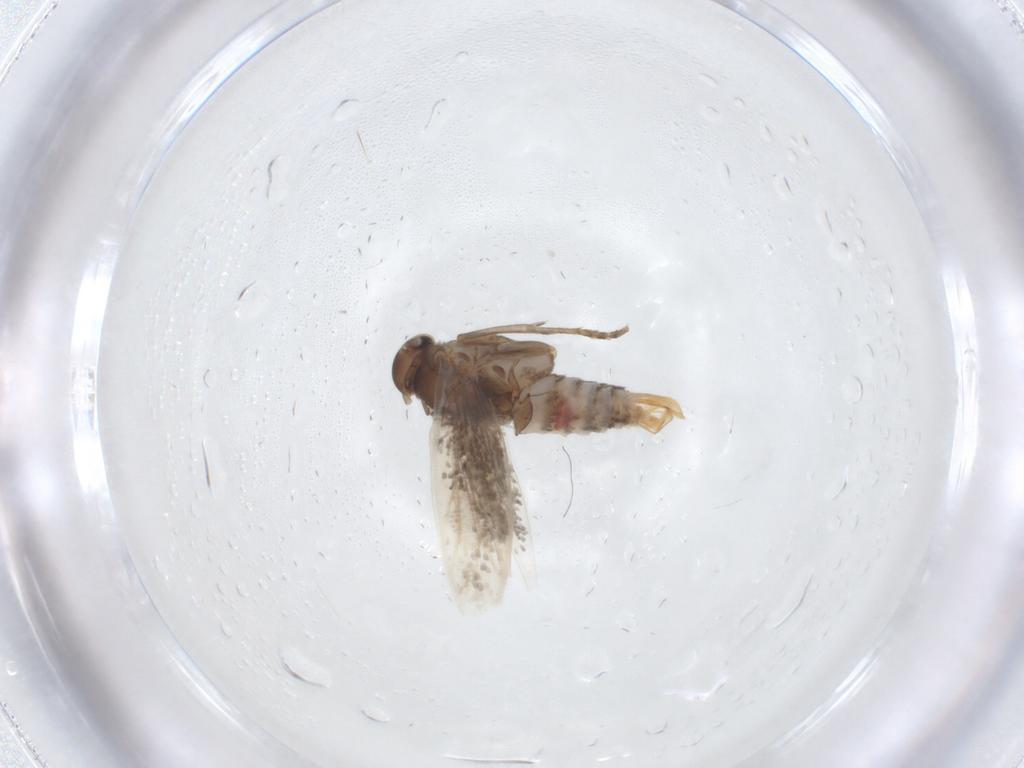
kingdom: Animalia
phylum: Arthropoda
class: Insecta
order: Lepidoptera
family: Elachistidae
